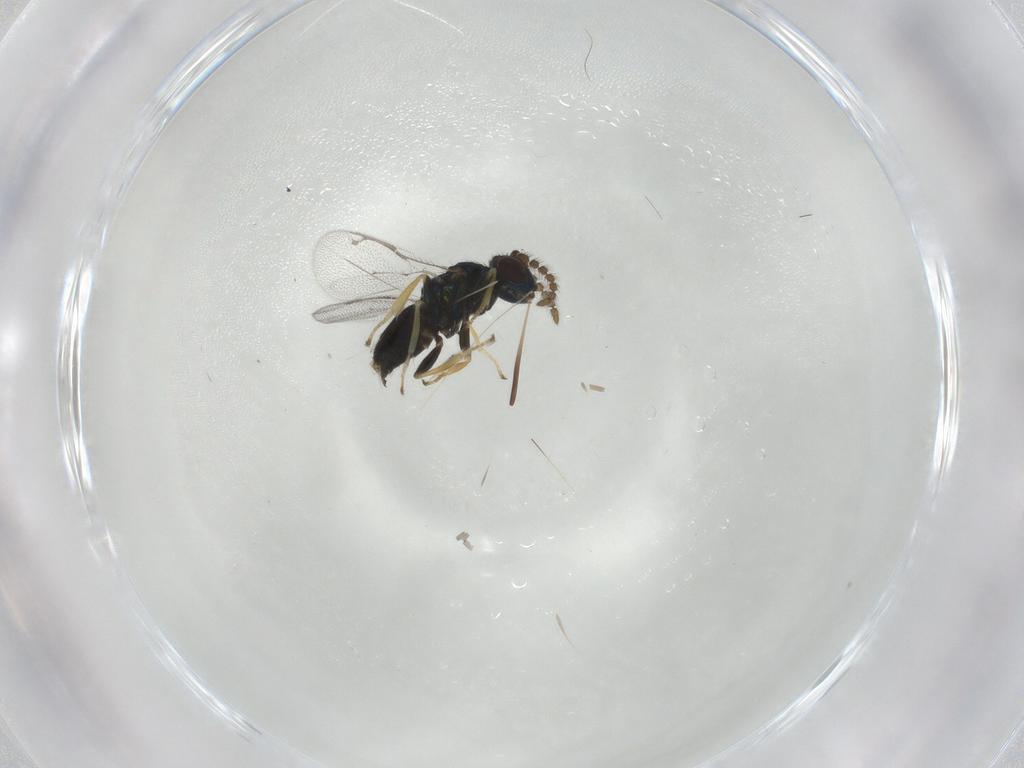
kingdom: Animalia
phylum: Arthropoda
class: Insecta
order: Hymenoptera
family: Pirenidae
